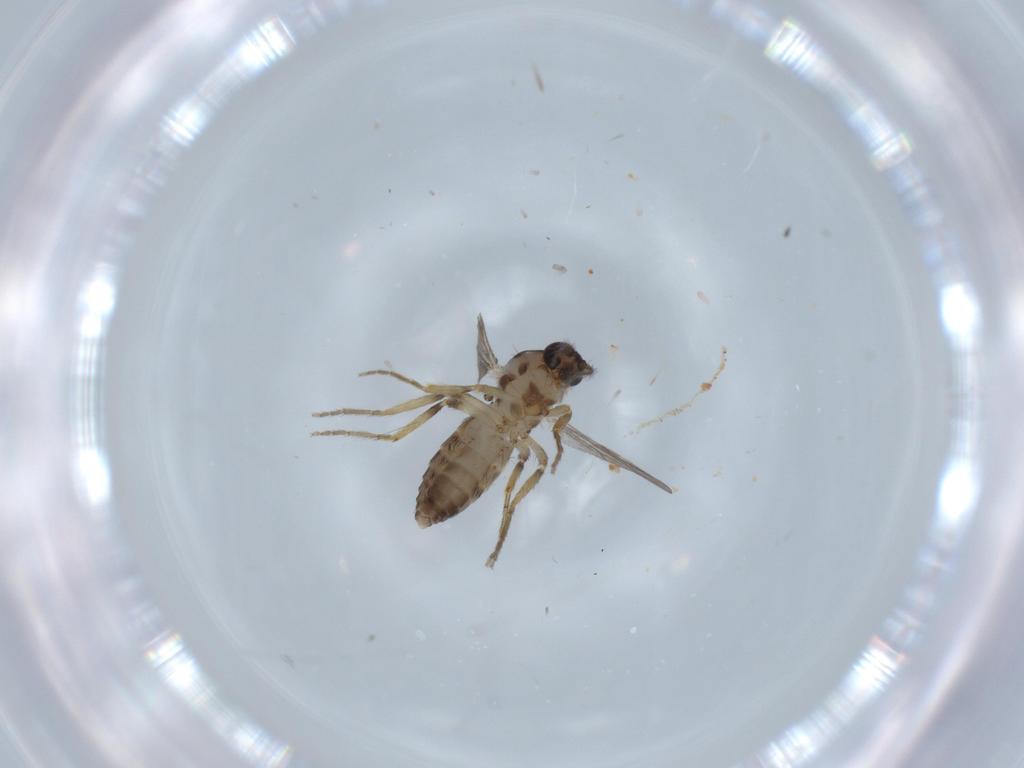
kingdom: Animalia
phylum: Arthropoda
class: Insecta
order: Diptera
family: Ceratopogonidae
